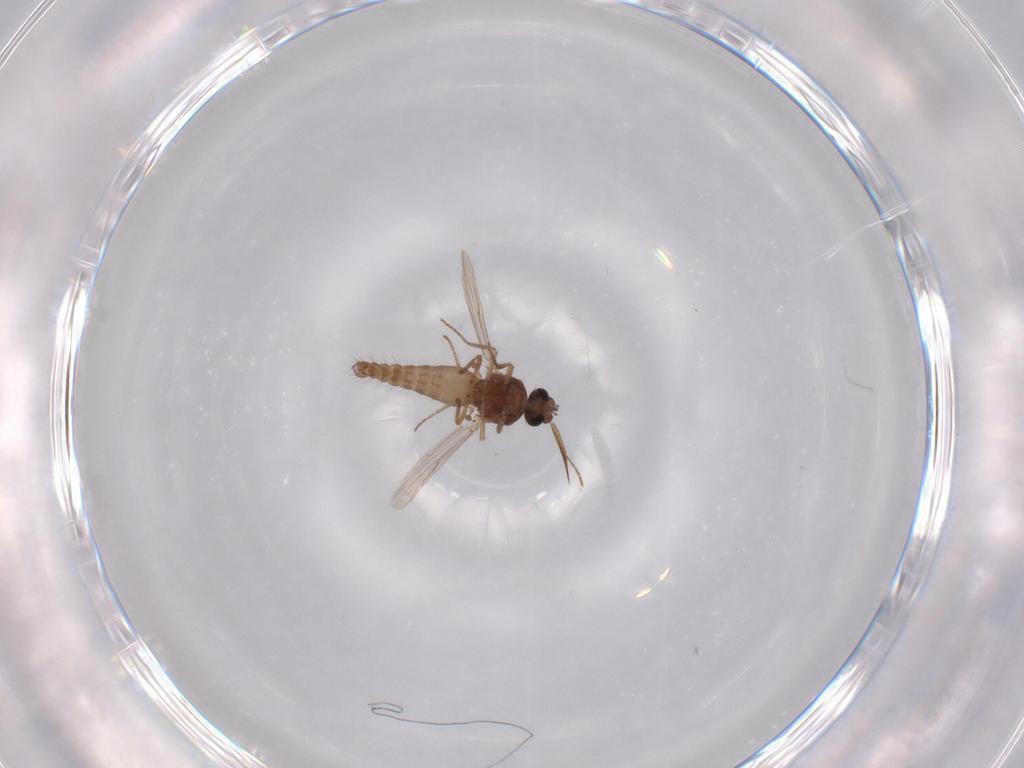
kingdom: Animalia
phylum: Arthropoda
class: Insecta
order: Diptera
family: Ceratopogonidae
